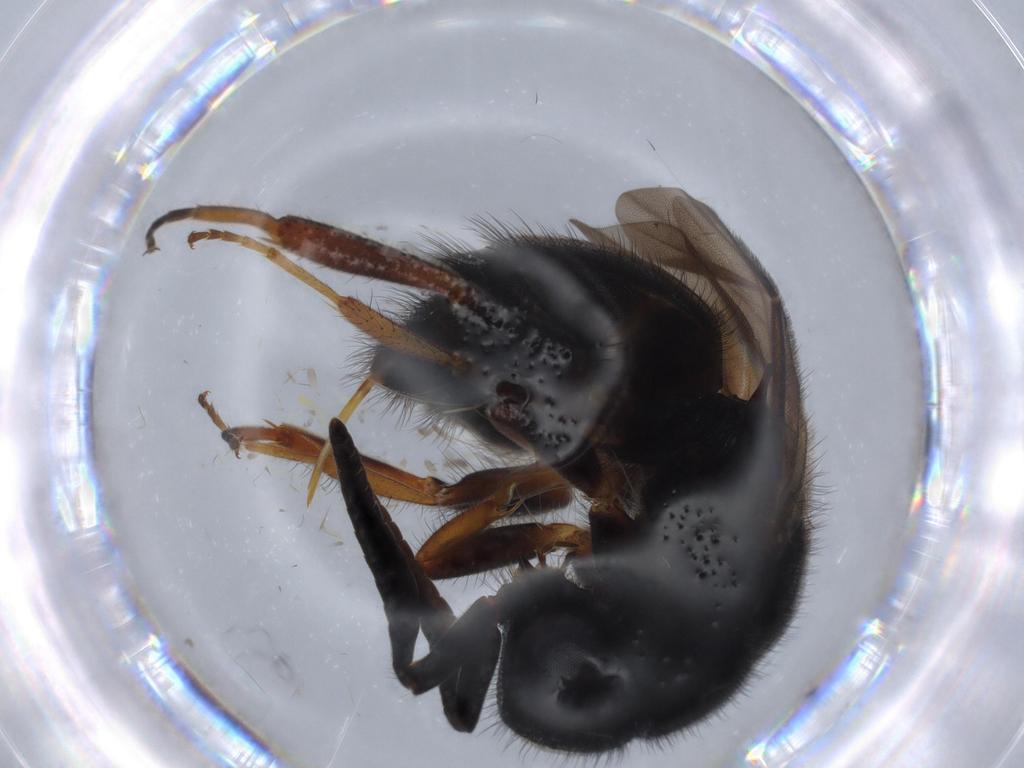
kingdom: Animalia
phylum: Arthropoda
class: Insecta
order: Hymenoptera
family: Chrysididae
